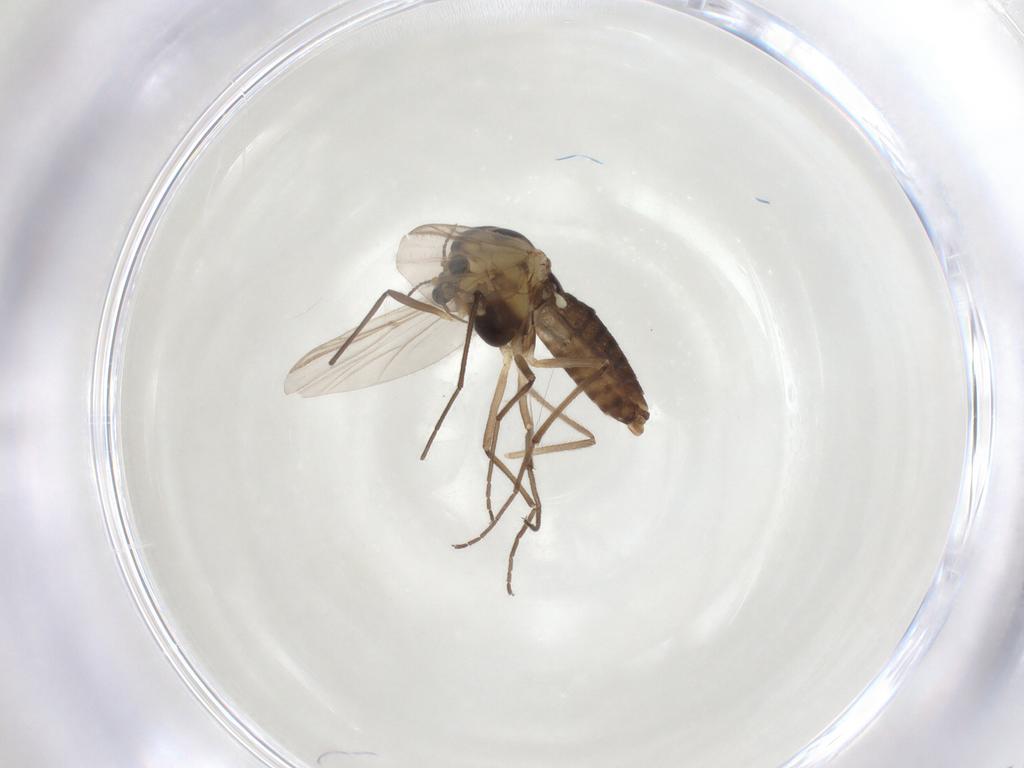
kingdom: Animalia
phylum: Arthropoda
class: Insecta
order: Diptera
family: Chironomidae
